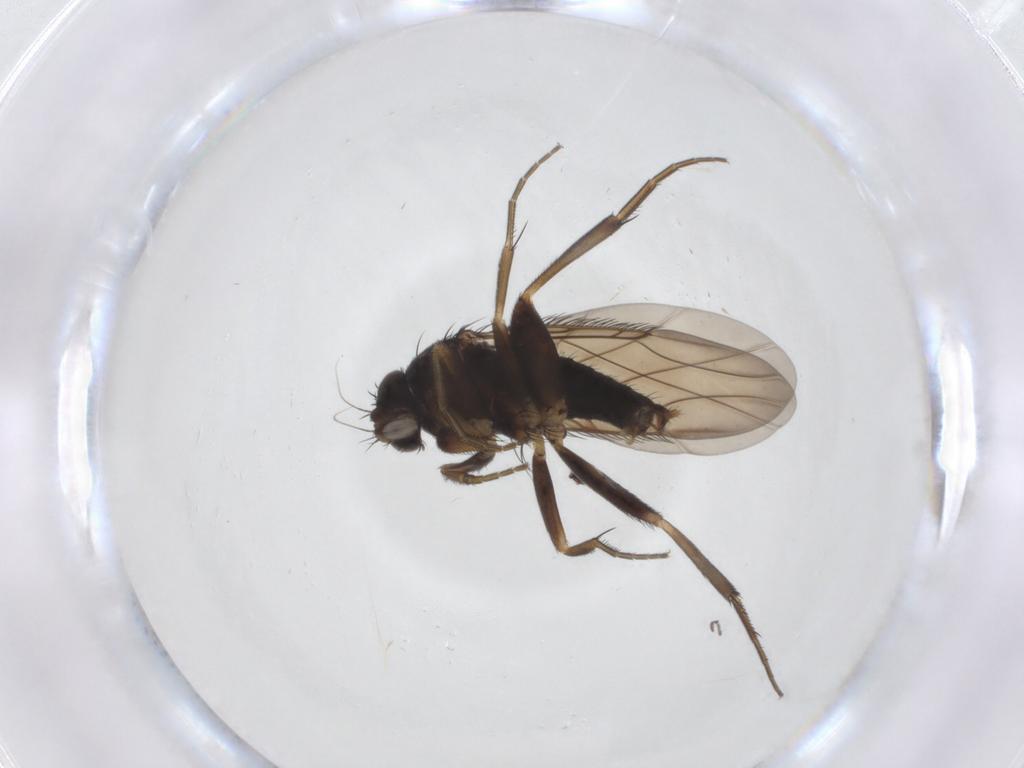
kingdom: Animalia
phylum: Arthropoda
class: Insecta
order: Diptera
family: Phoridae
